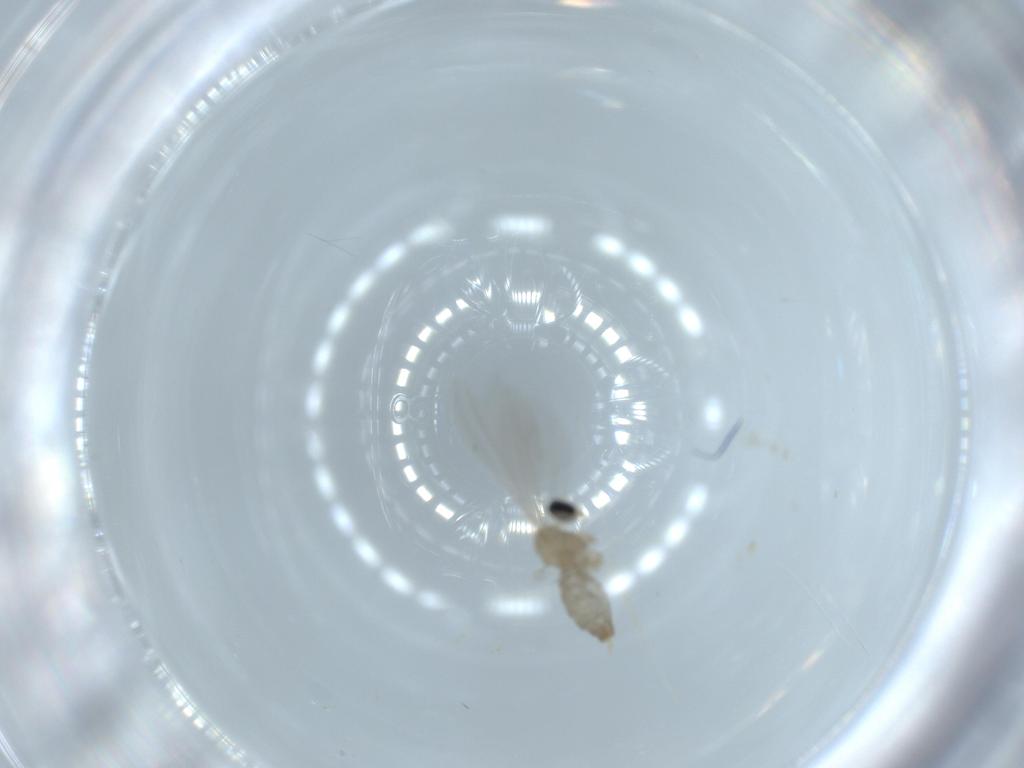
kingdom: Animalia
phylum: Arthropoda
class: Insecta
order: Diptera
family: Cecidomyiidae
